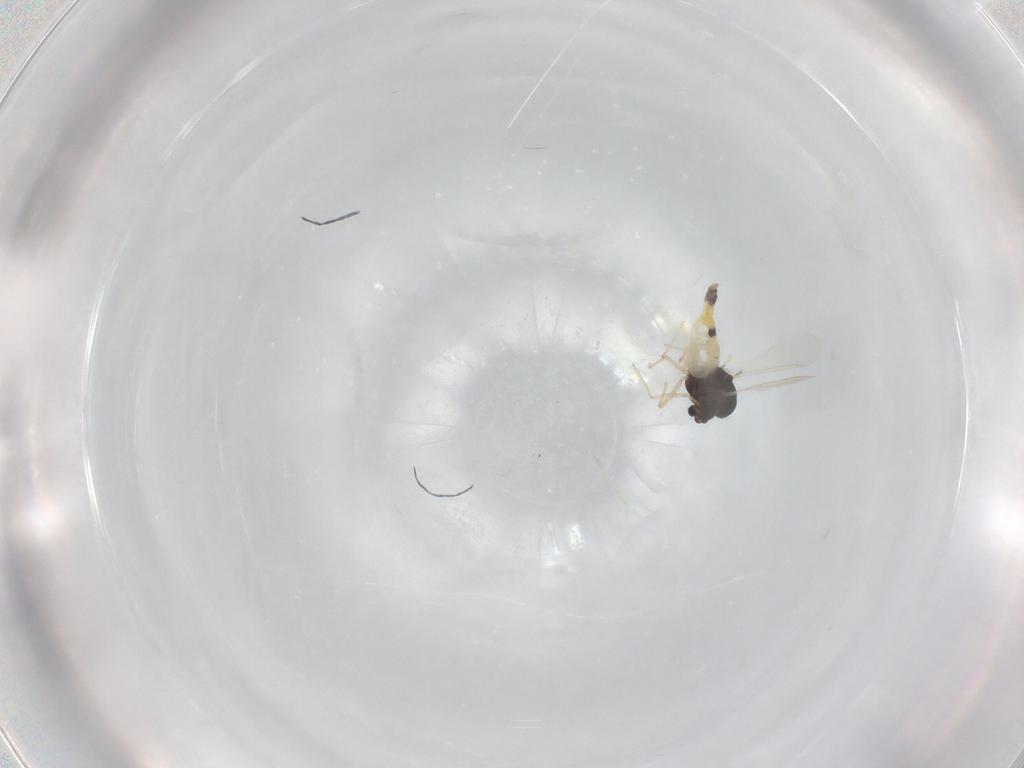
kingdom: Animalia
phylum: Arthropoda
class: Insecta
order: Diptera
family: Chironomidae
